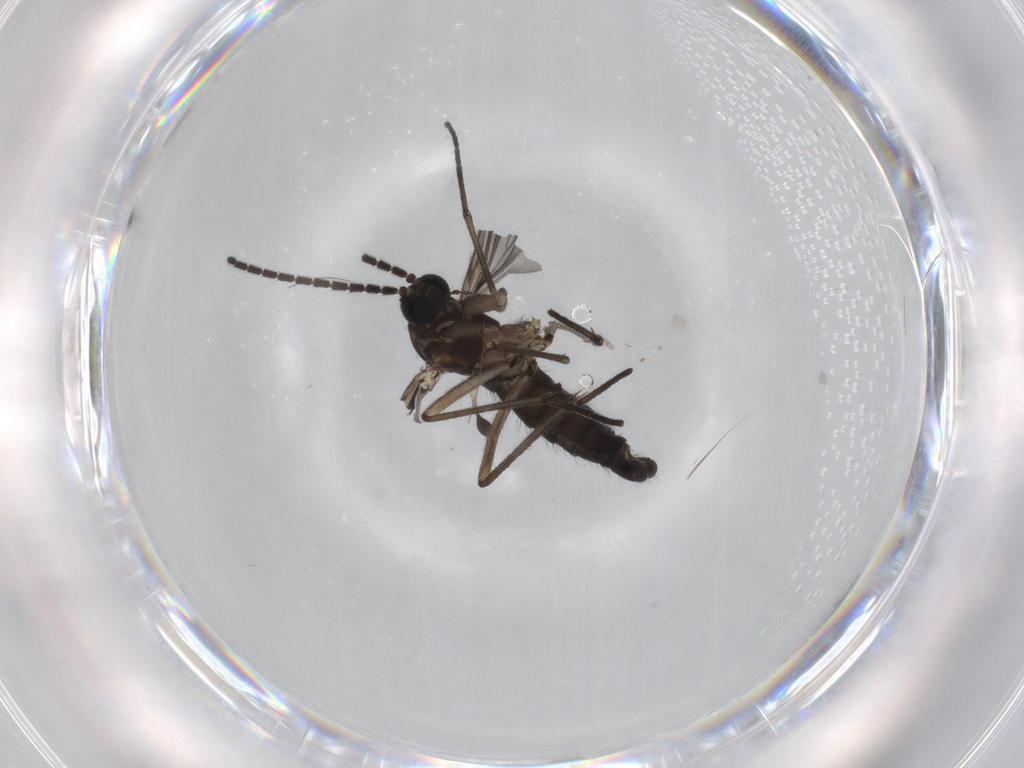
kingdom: Animalia
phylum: Arthropoda
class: Insecta
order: Diptera
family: Sciaridae
